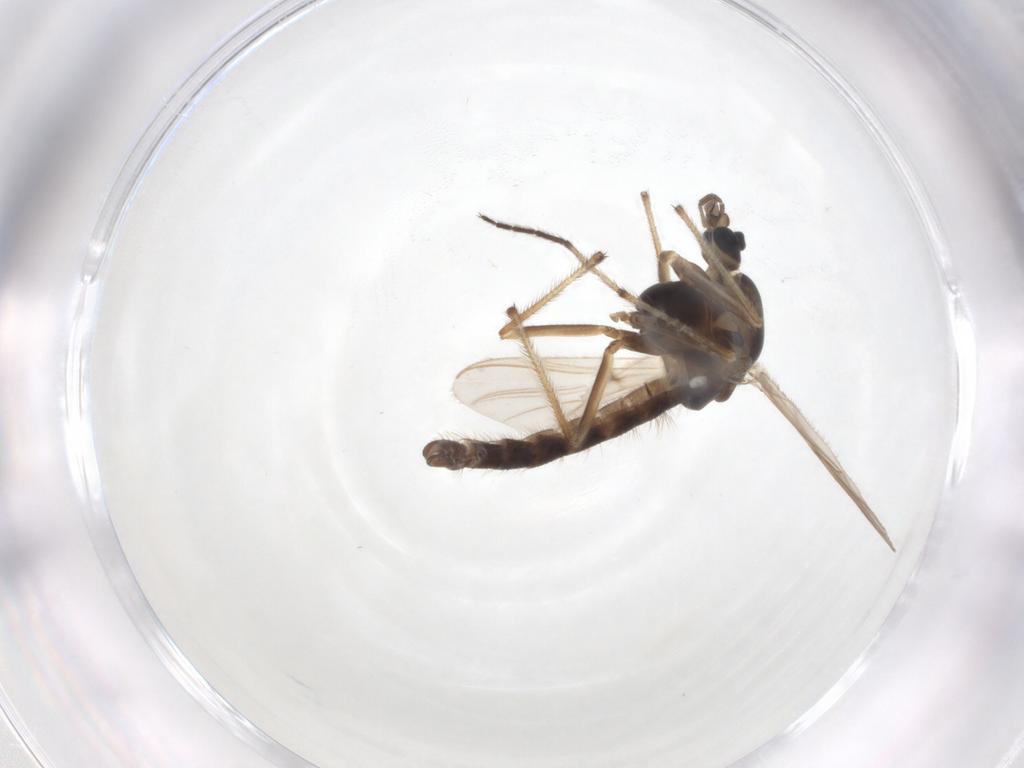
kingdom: Animalia
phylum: Arthropoda
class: Insecta
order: Diptera
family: Chironomidae
